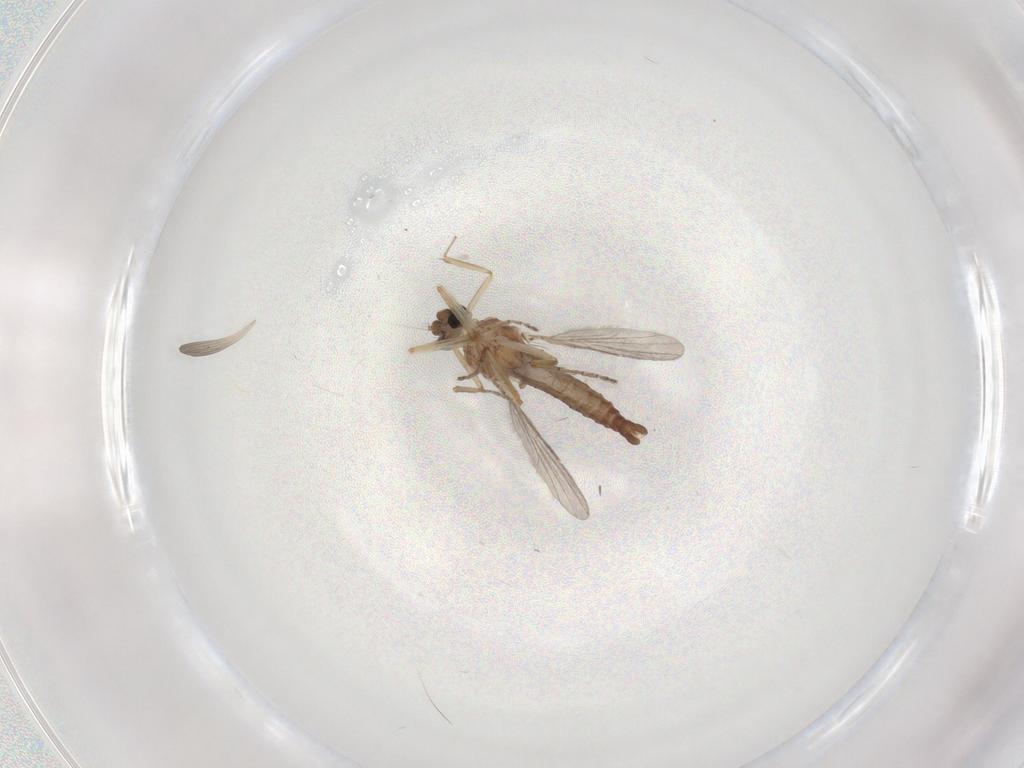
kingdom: Animalia
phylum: Arthropoda
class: Insecta
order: Diptera
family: Ceratopogonidae
